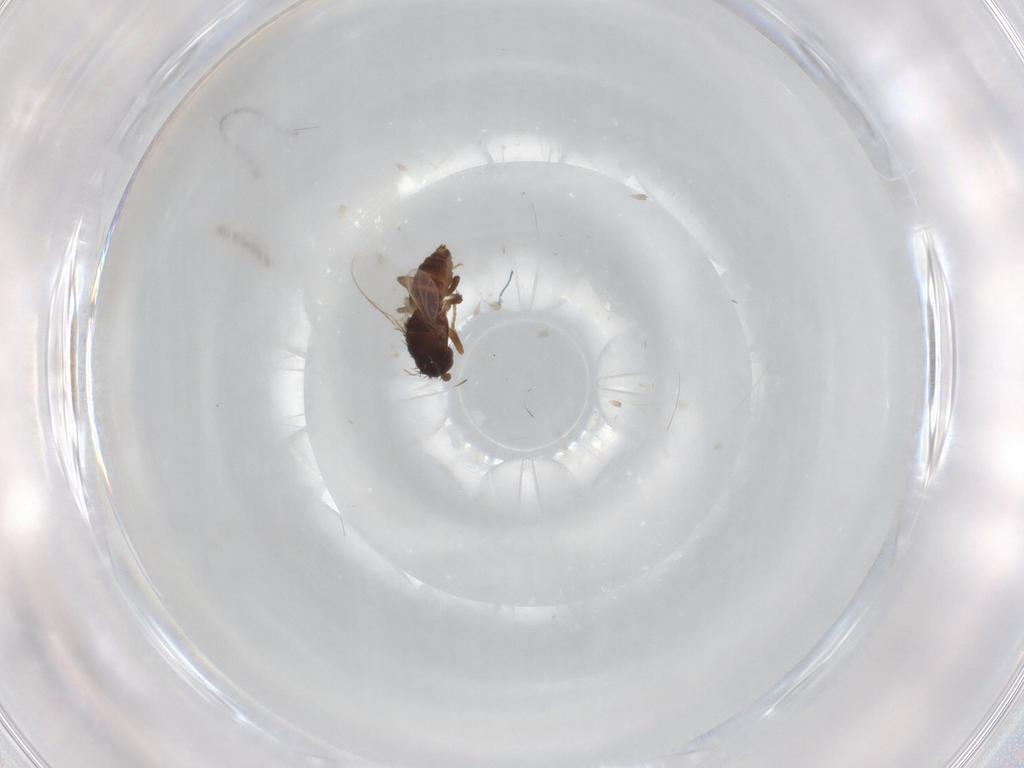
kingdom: Animalia
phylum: Arthropoda
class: Insecta
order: Diptera
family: Sphaeroceridae
